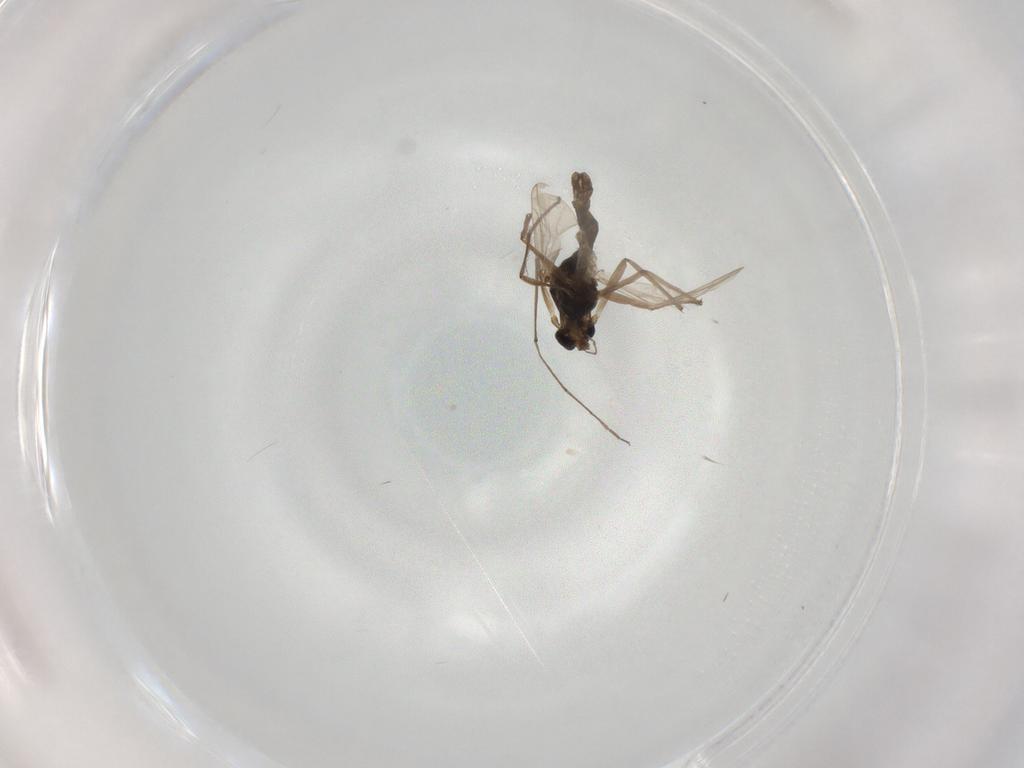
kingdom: Animalia
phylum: Arthropoda
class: Insecta
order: Diptera
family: Chironomidae
